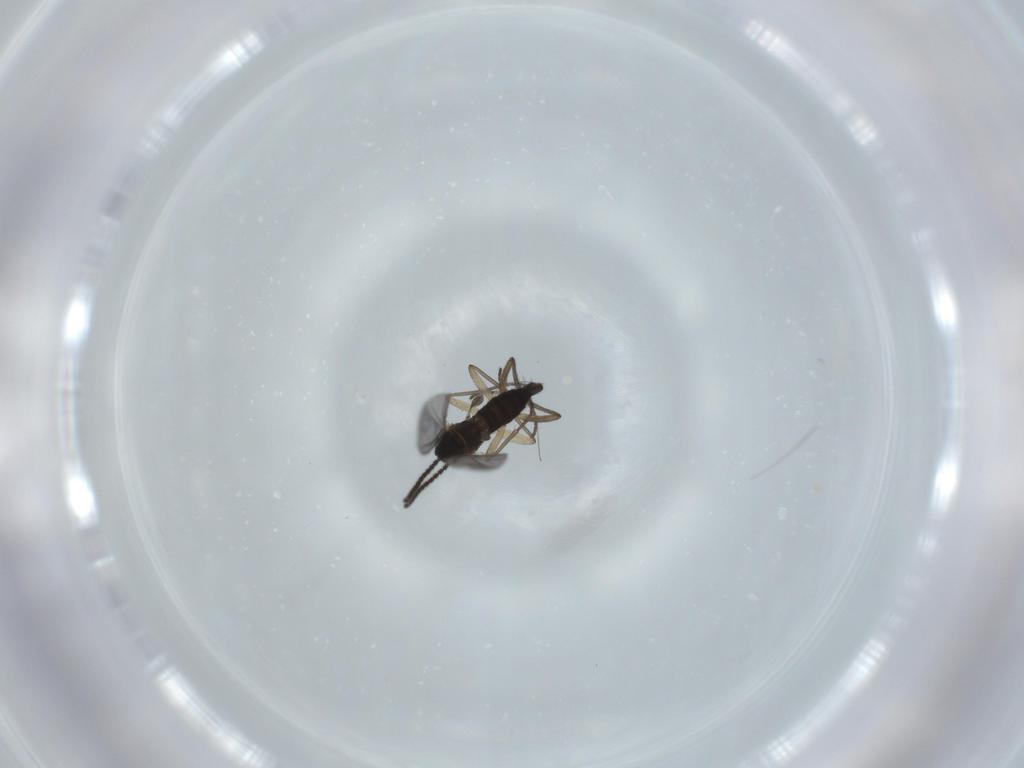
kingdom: Animalia
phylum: Arthropoda
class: Insecta
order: Diptera
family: Sciaridae
